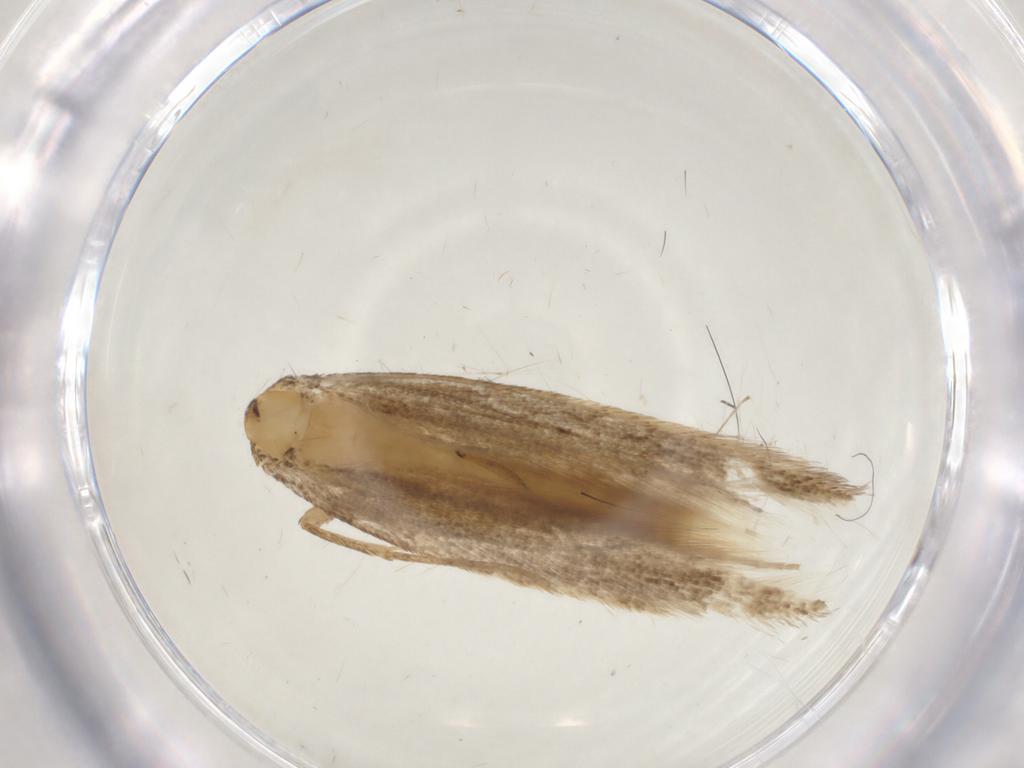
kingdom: Animalia
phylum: Arthropoda
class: Insecta
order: Lepidoptera
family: Tineidae
